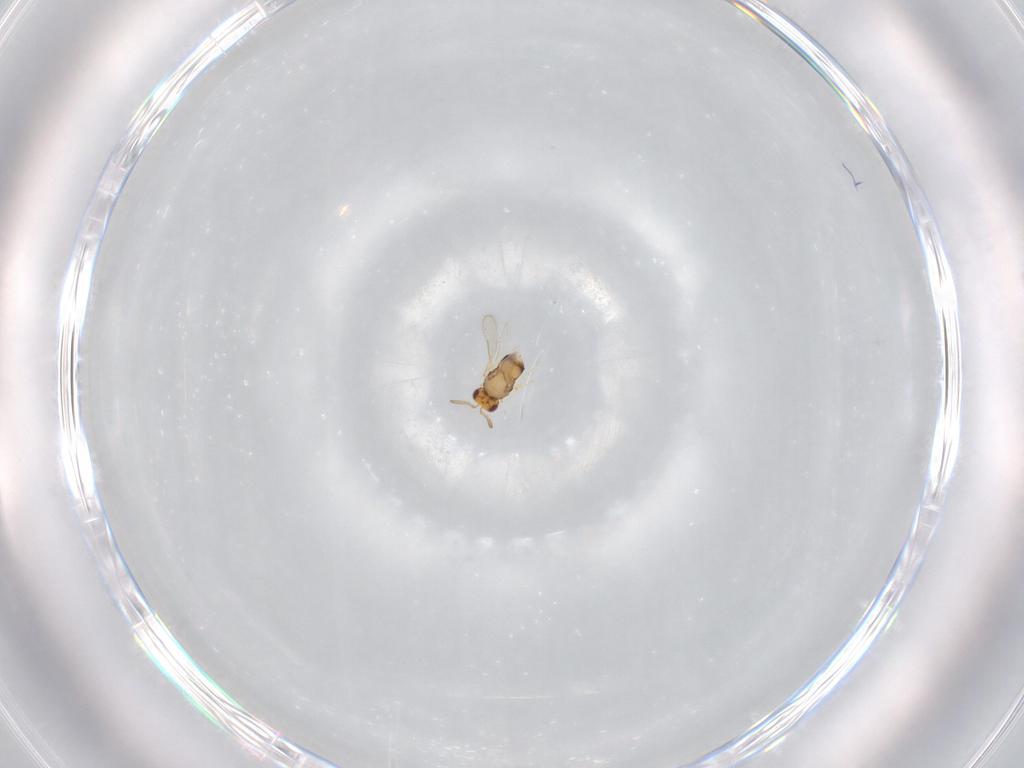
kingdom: Animalia
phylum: Arthropoda
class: Insecta
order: Hymenoptera
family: Aphelinidae
